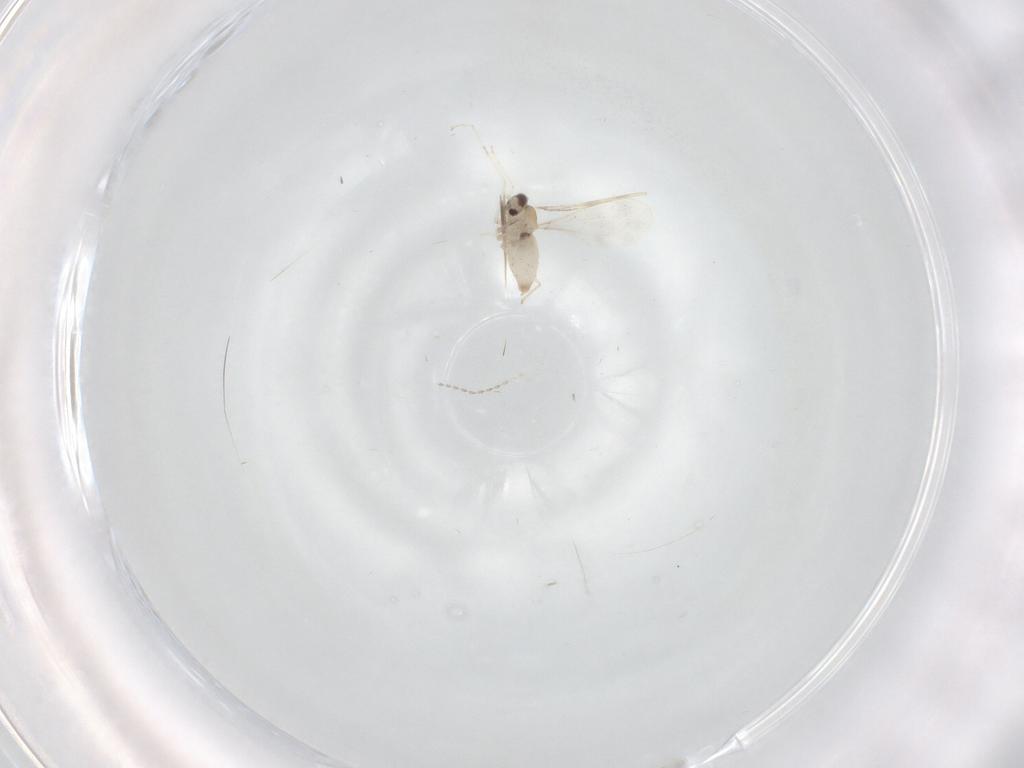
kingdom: Animalia
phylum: Arthropoda
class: Insecta
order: Diptera
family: Cecidomyiidae
